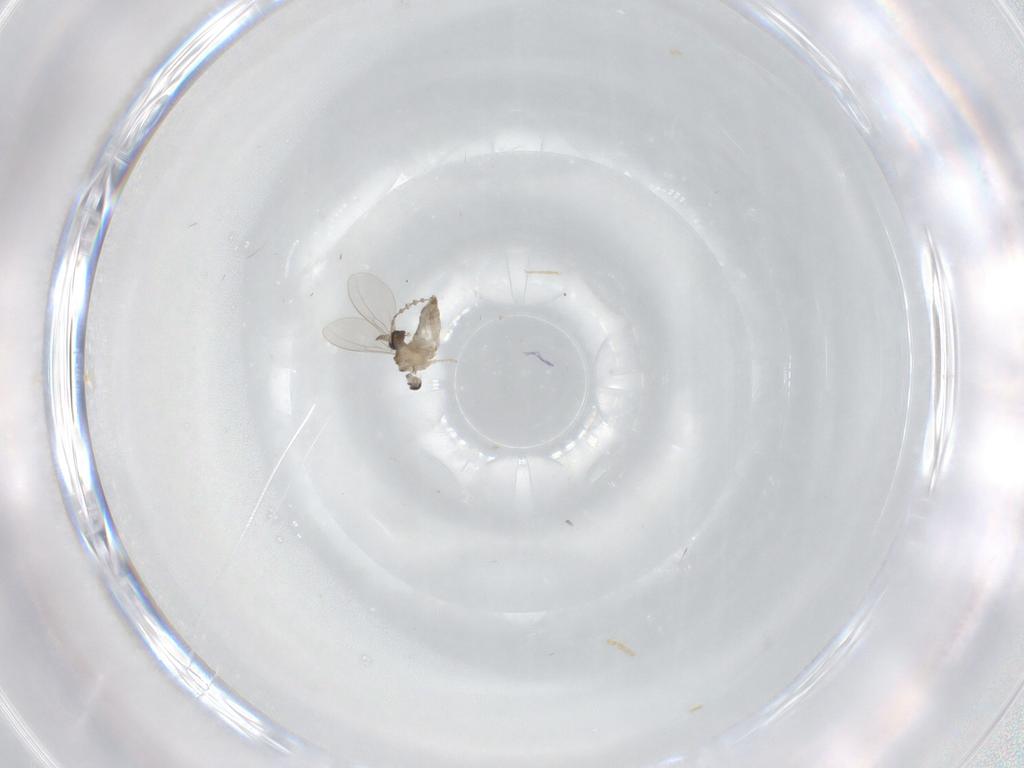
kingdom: Animalia
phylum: Arthropoda
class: Insecta
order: Diptera
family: Cecidomyiidae
